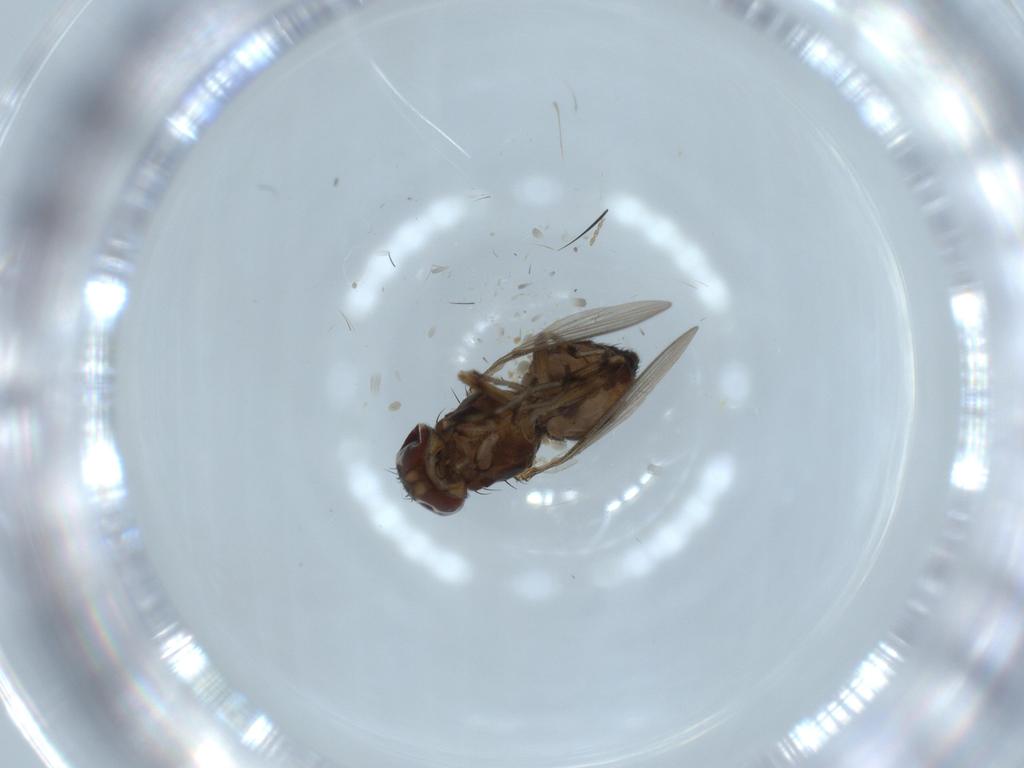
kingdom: Animalia
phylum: Arthropoda
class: Insecta
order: Diptera
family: Heleomyzidae
